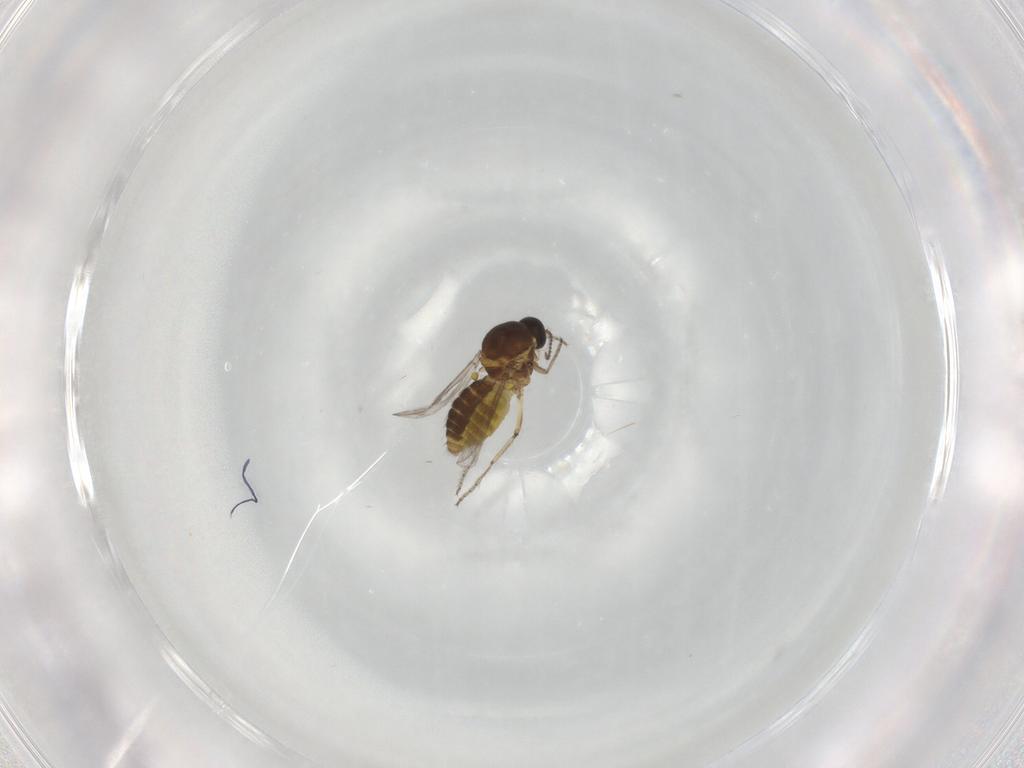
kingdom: Animalia
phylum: Arthropoda
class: Insecta
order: Diptera
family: Ceratopogonidae
